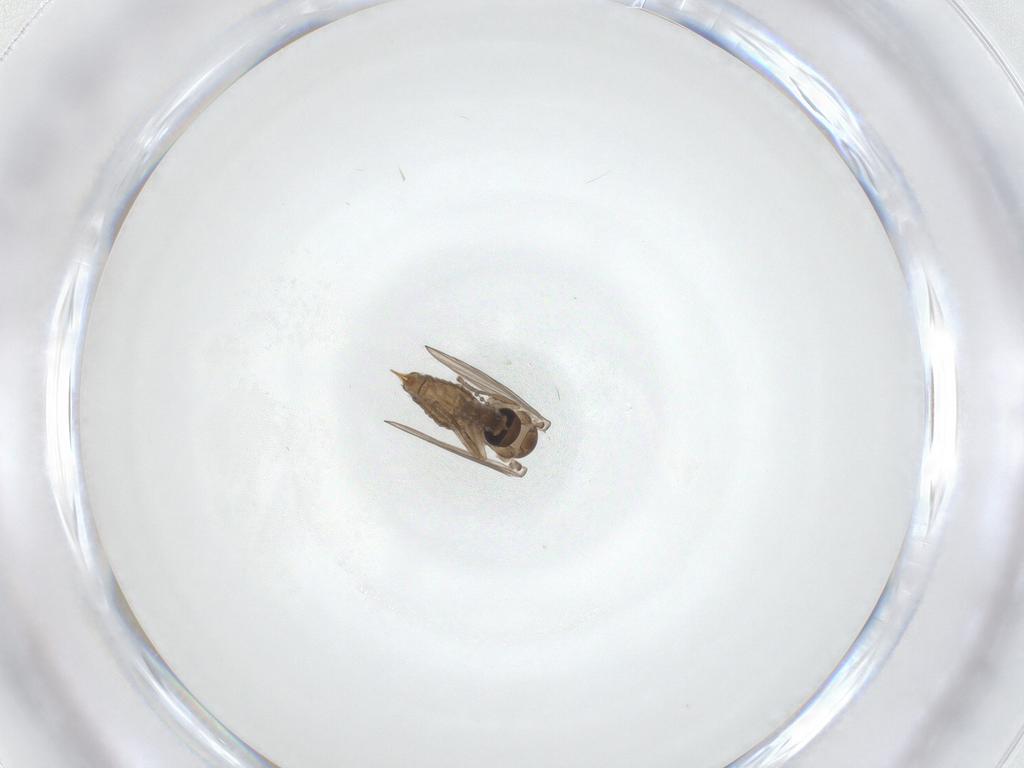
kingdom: Animalia
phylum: Arthropoda
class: Insecta
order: Diptera
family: Psychodidae
